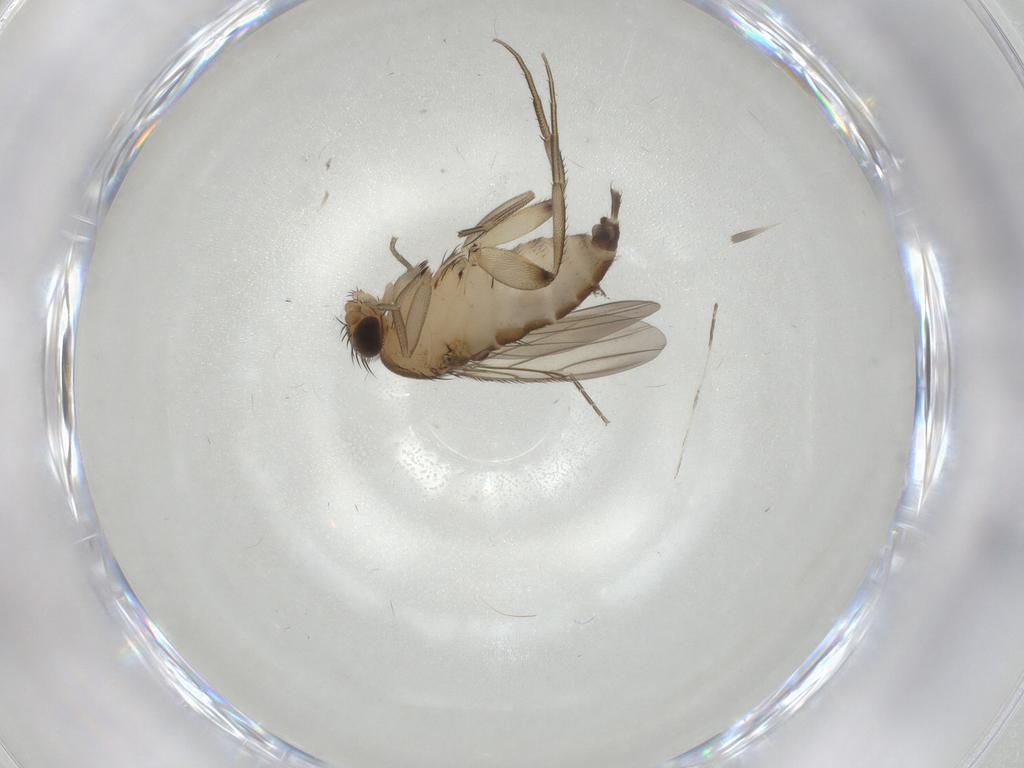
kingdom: Animalia
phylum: Arthropoda
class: Insecta
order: Diptera
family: Phoridae
